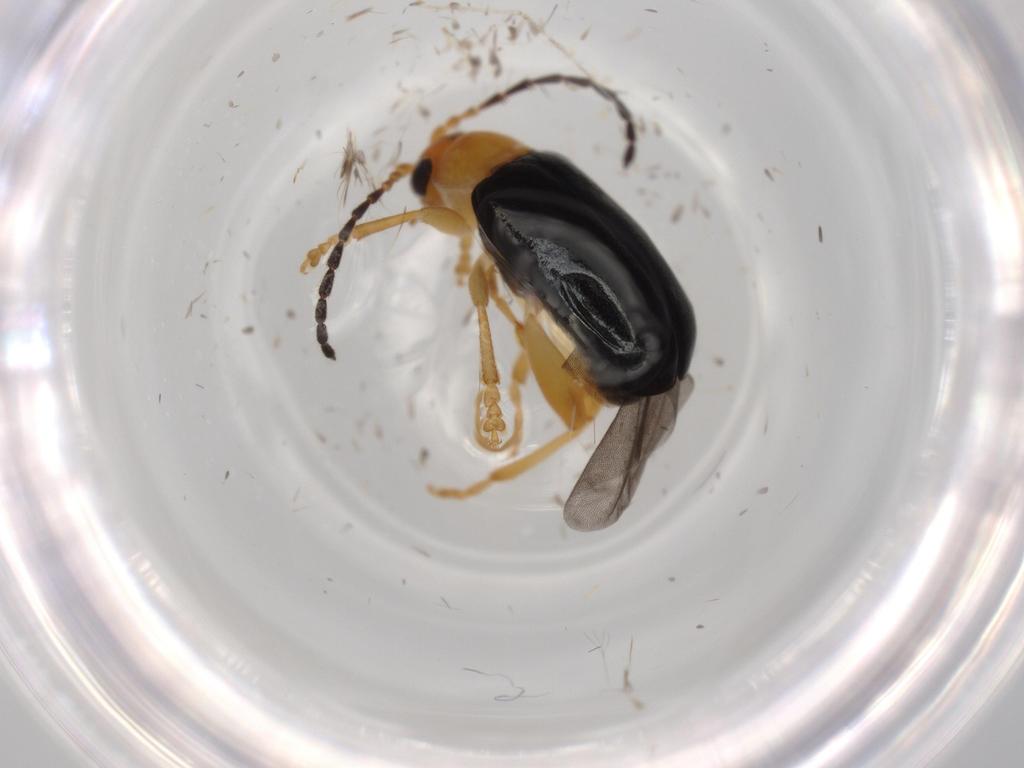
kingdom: Animalia
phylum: Arthropoda
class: Insecta
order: Coleoptera
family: Chrysomelidae
